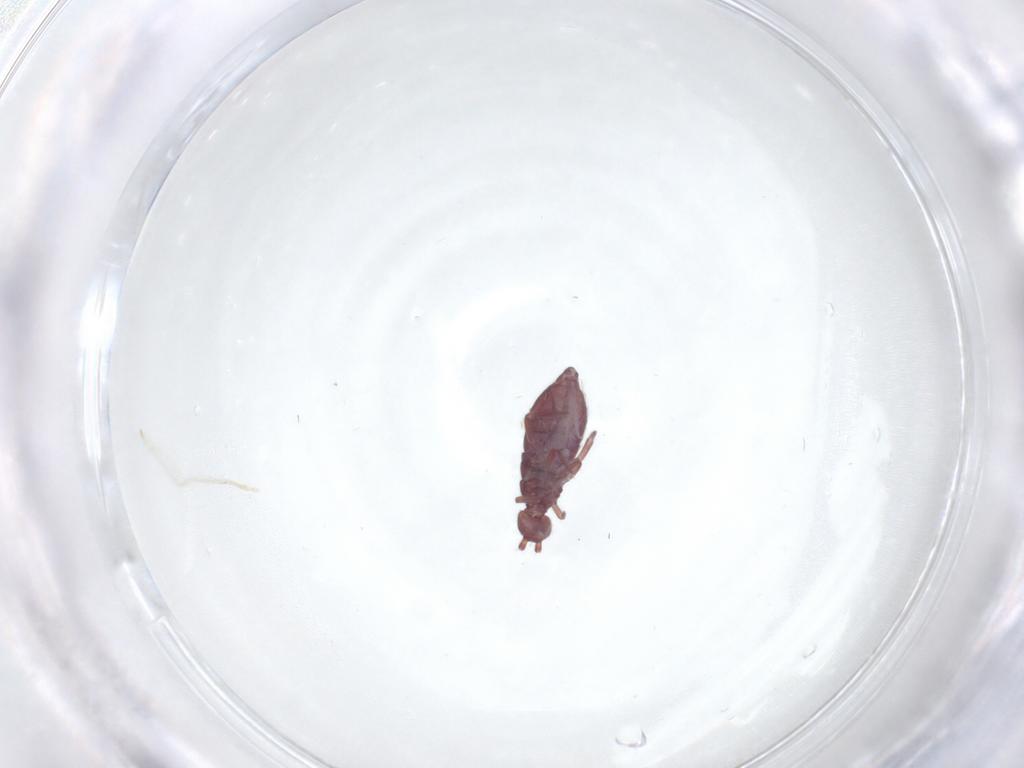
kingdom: Animalia
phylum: Arthropoda
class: Collembola
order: Entomobryomorpha
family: Entomobryidae
